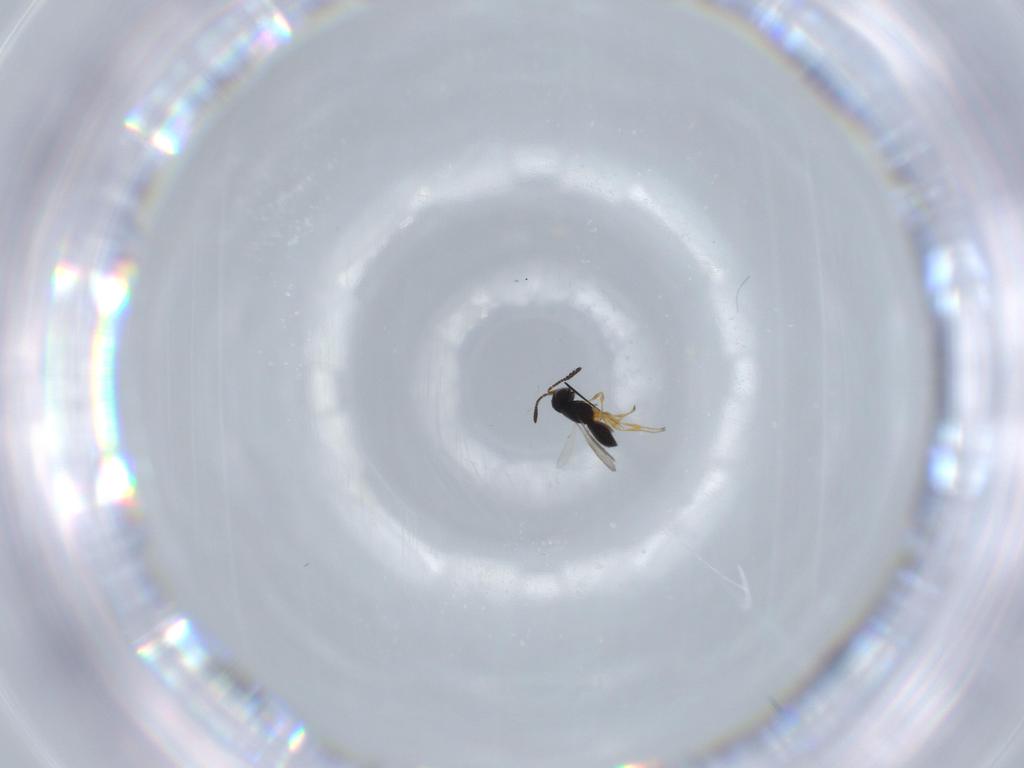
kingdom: Animalia
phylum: Arthropoda
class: Insecta
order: Hymenoptera
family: Scelionidae
